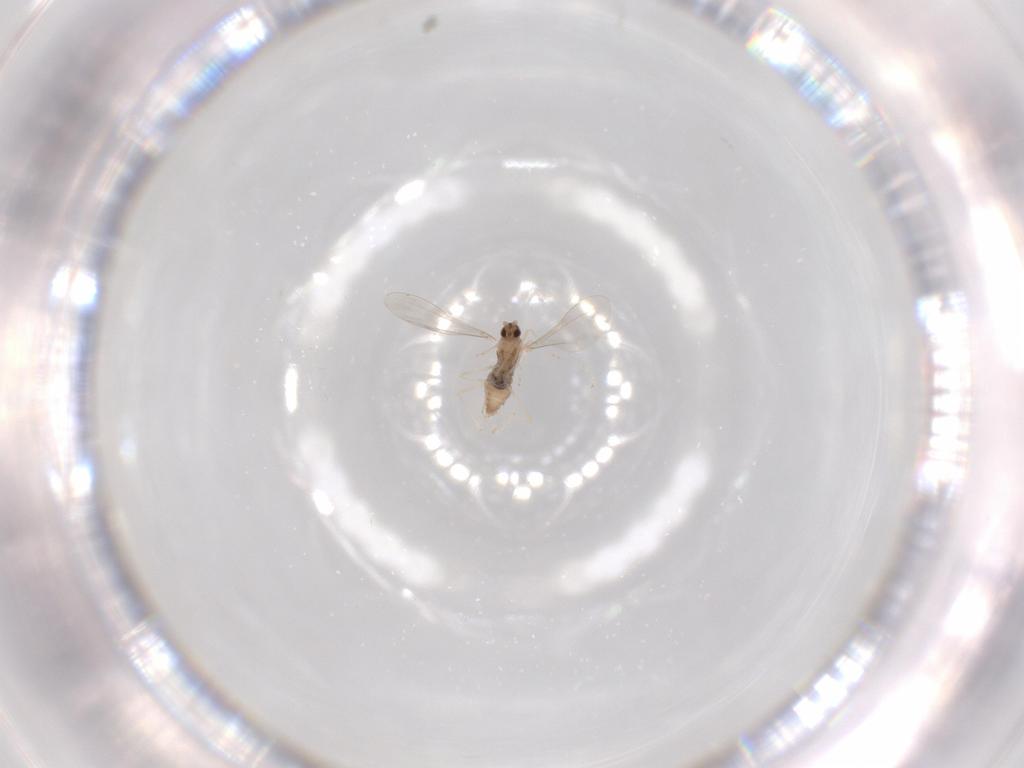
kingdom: Animalia
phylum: Arthropoda
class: Insecta
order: Diptera
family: Cecidomyiidae
